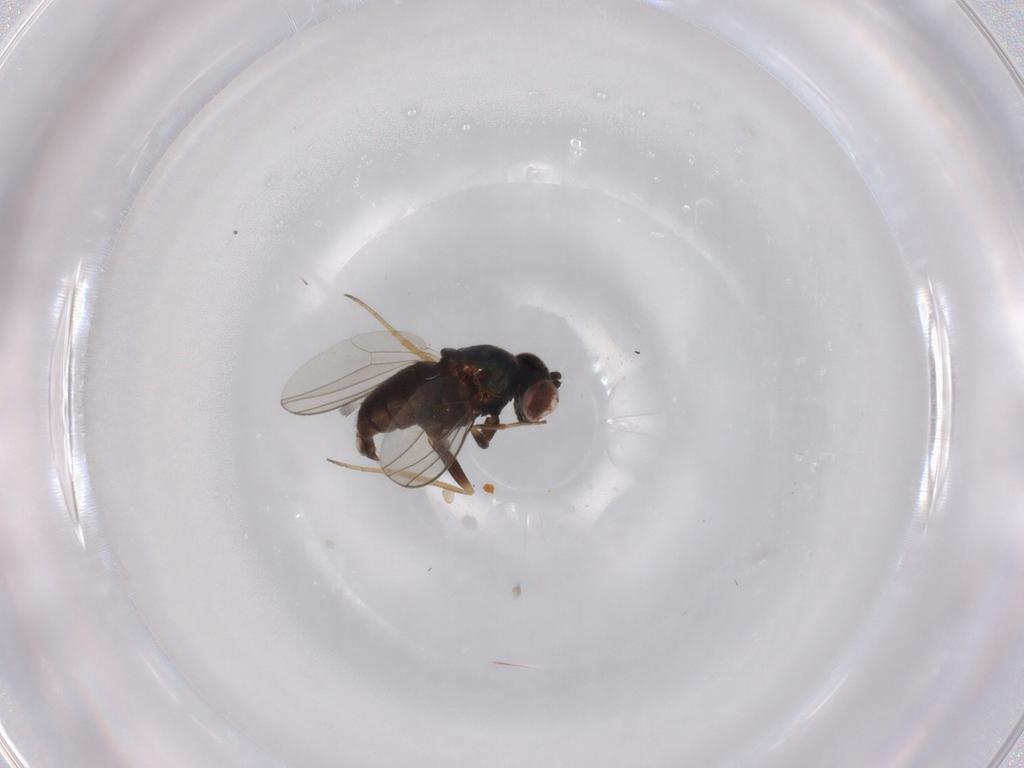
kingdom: Animalia
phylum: Arthropoda
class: Insecta
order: Diptera
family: Dolichopodidae
